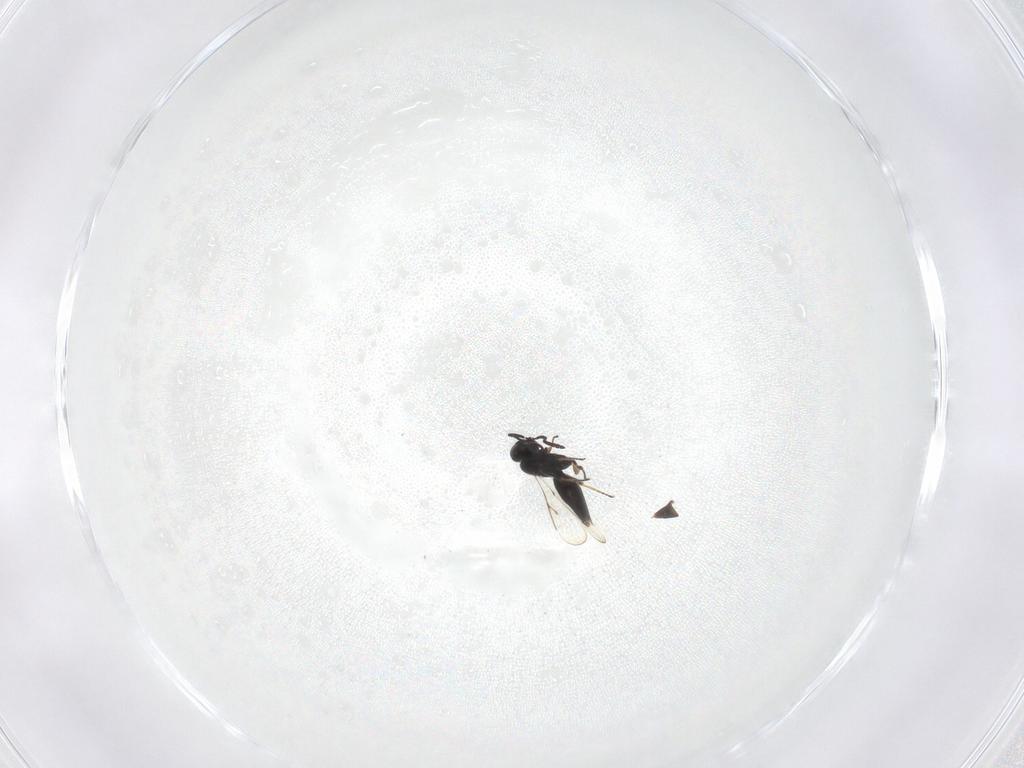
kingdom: Animalia
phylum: Arthropoda
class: Insecta
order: Hymenoptera
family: Scelionidae
